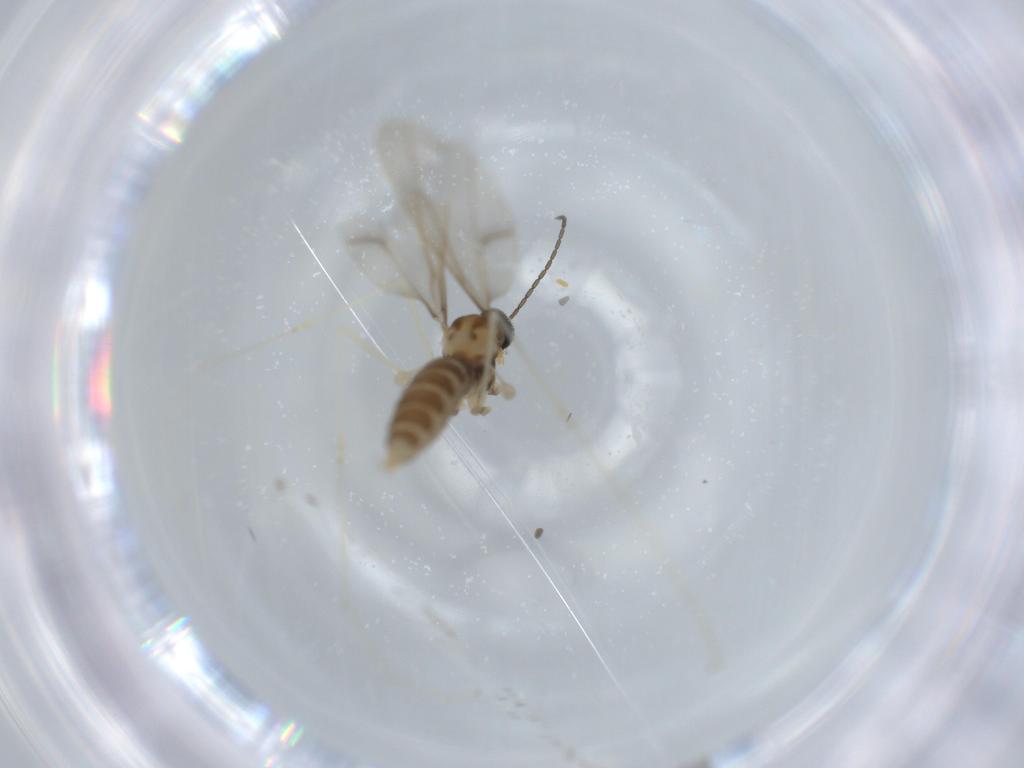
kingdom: Animalia
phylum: Arthropoda
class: Insecta
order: Diptera
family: Cecidomyiidae
